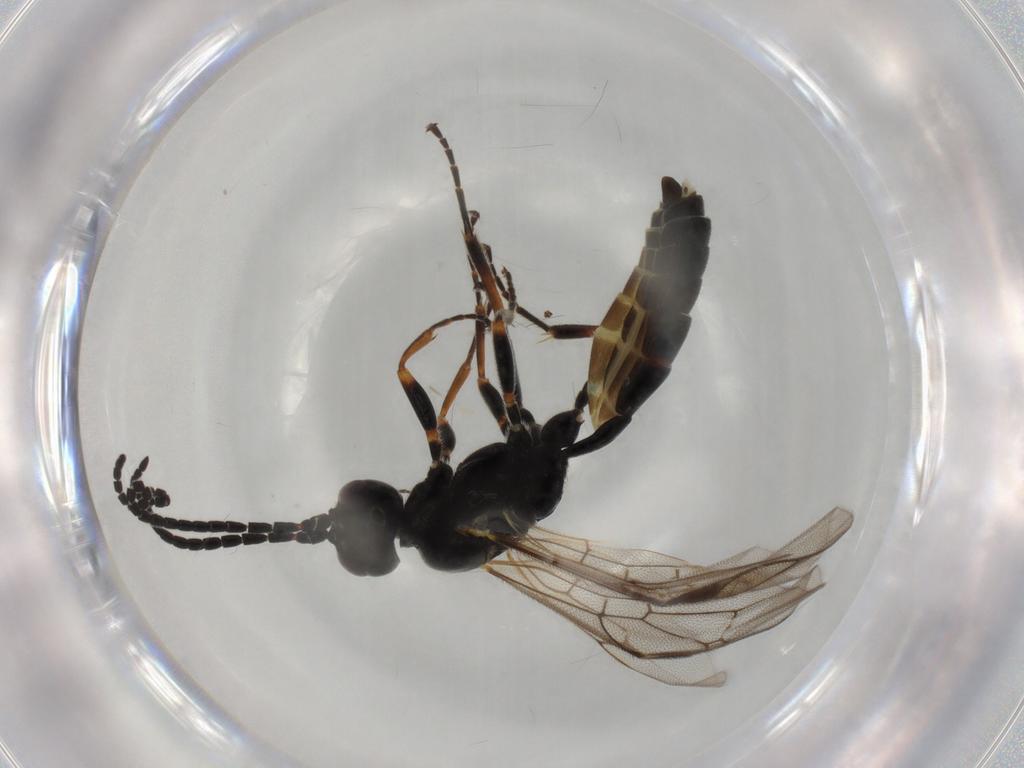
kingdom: Animalia
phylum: Arthropoda
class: Insecta
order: Hymenoptera
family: Ichneumonidae
